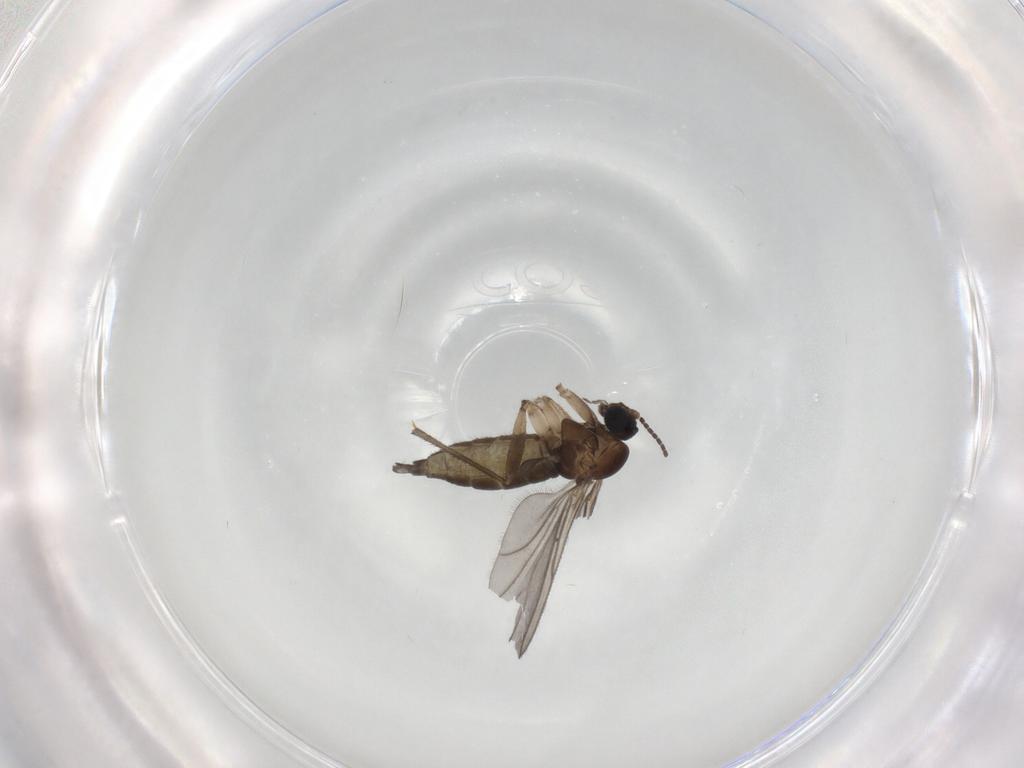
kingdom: Animalia
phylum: Arthropoda
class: Insecta
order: Diptera
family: Sciaridae
